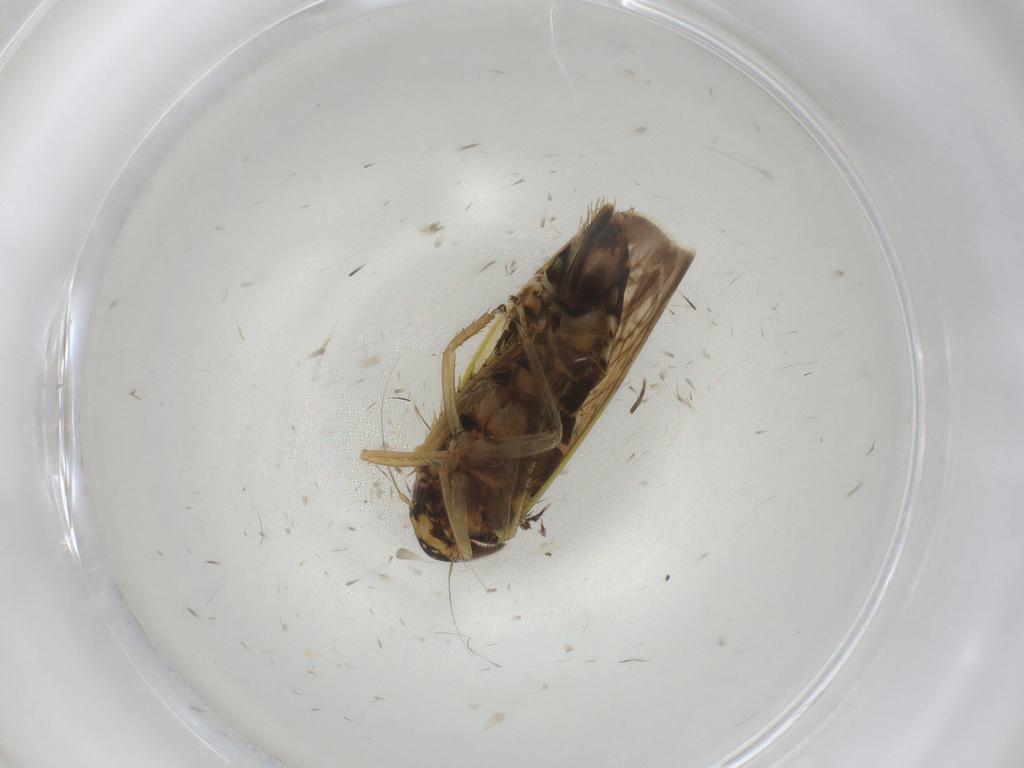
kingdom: Animalia
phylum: Arthropoda
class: Insecta
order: Hemiptera
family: Cicadellidae
